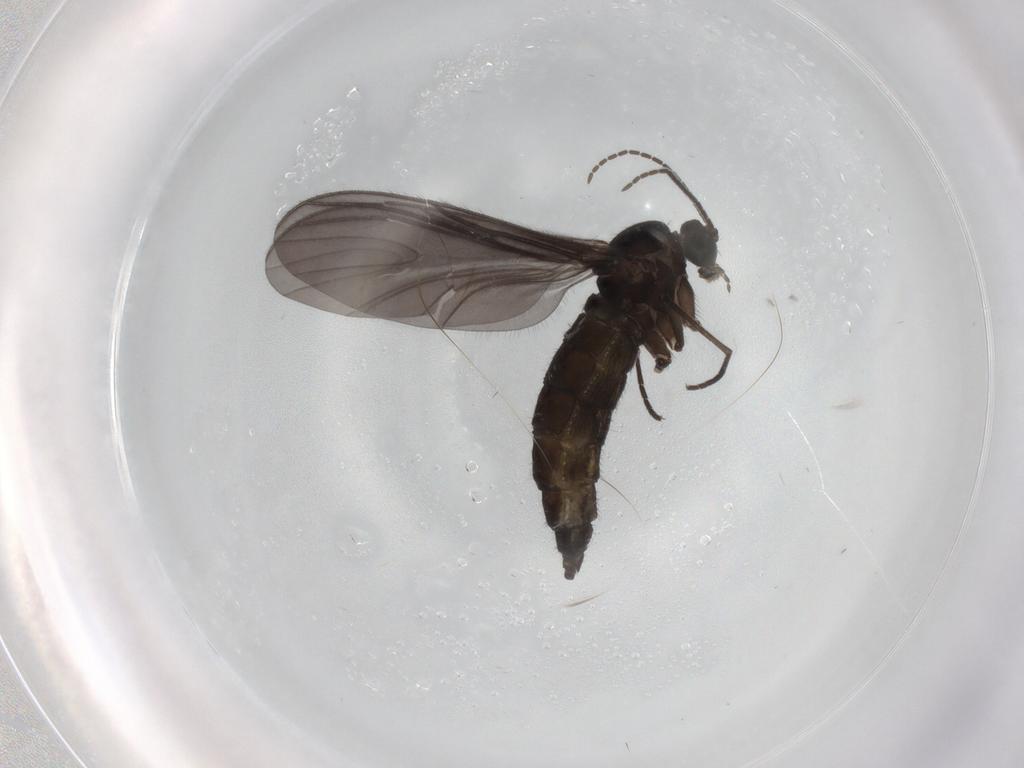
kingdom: Animalia
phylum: Arthropoda
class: Insecta
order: Diptera
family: Sciaridae
